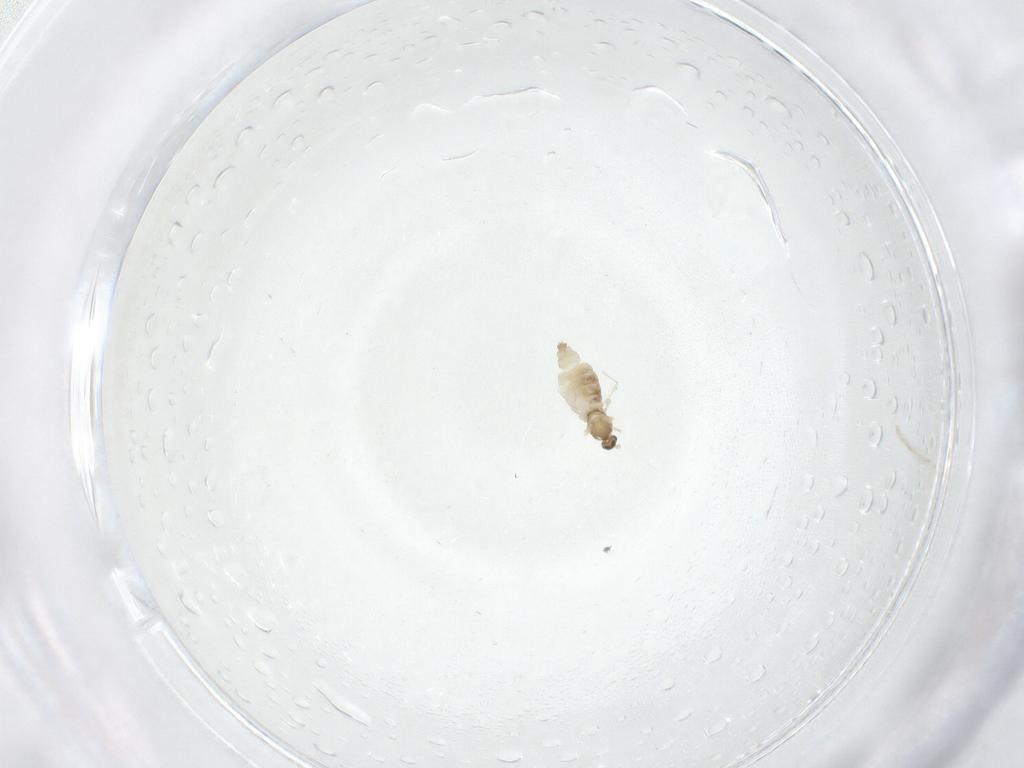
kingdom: Animalia
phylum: Arthropoda
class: Insecta
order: Diptera
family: Cecidomyiidae
